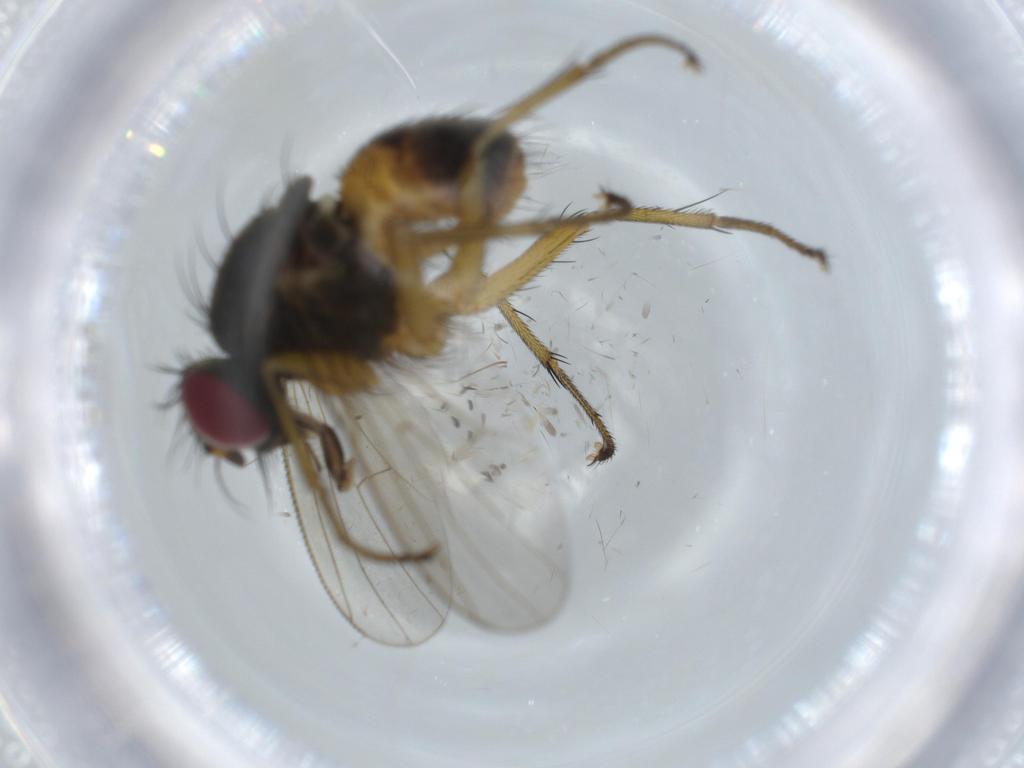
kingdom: Animalia
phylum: Arthropoda
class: Insecta
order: Diptera
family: Muscidae
